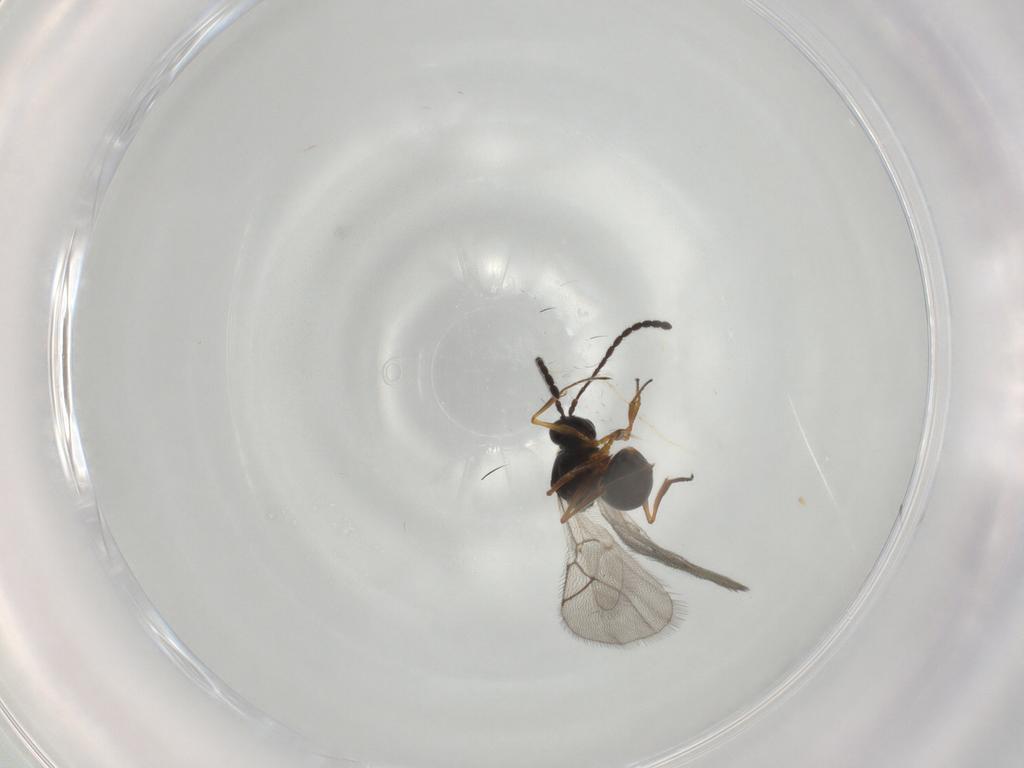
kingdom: Animalia
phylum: Arthropoda
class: Insecta
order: Hymenoptera
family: Figitidae
